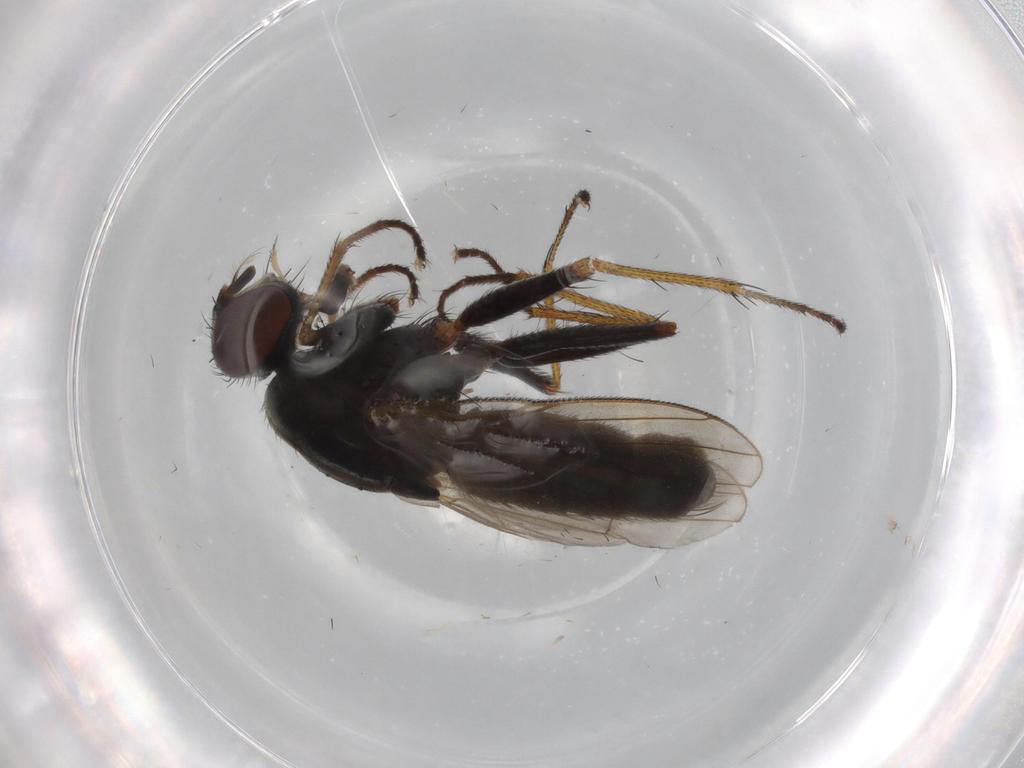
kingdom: Animalia
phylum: Arthropoda
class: Insecta
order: Diptera
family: Muscidae
